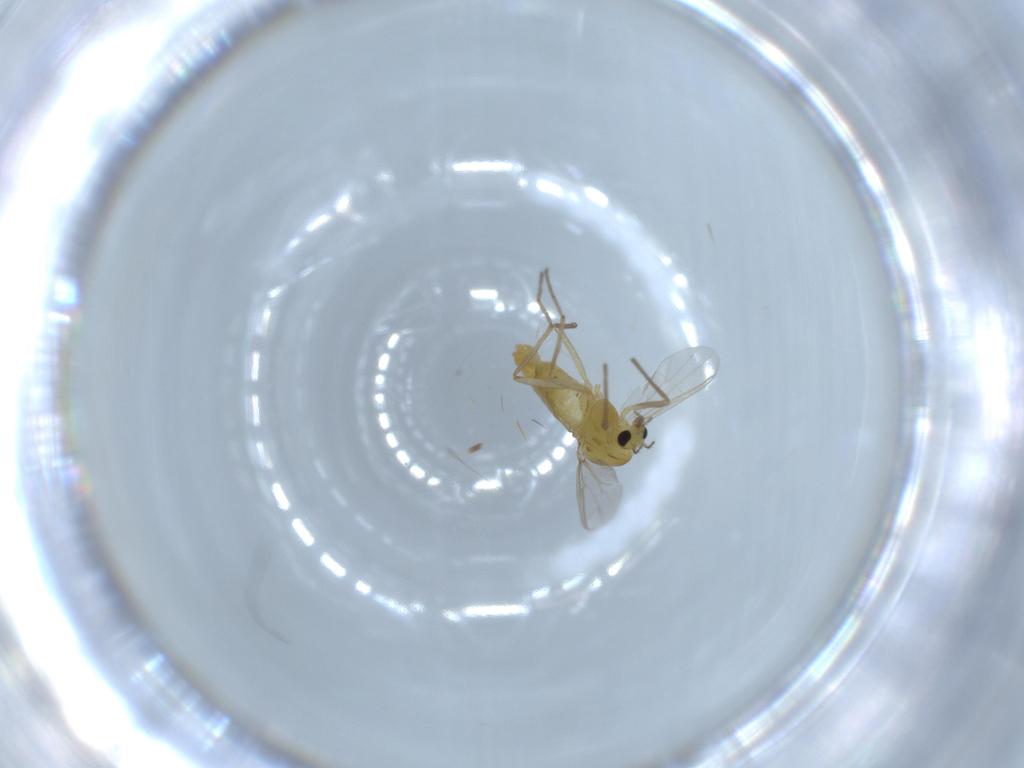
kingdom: Animalia
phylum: Arthropoda
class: Insecta
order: Diptera
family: Chironomidae
